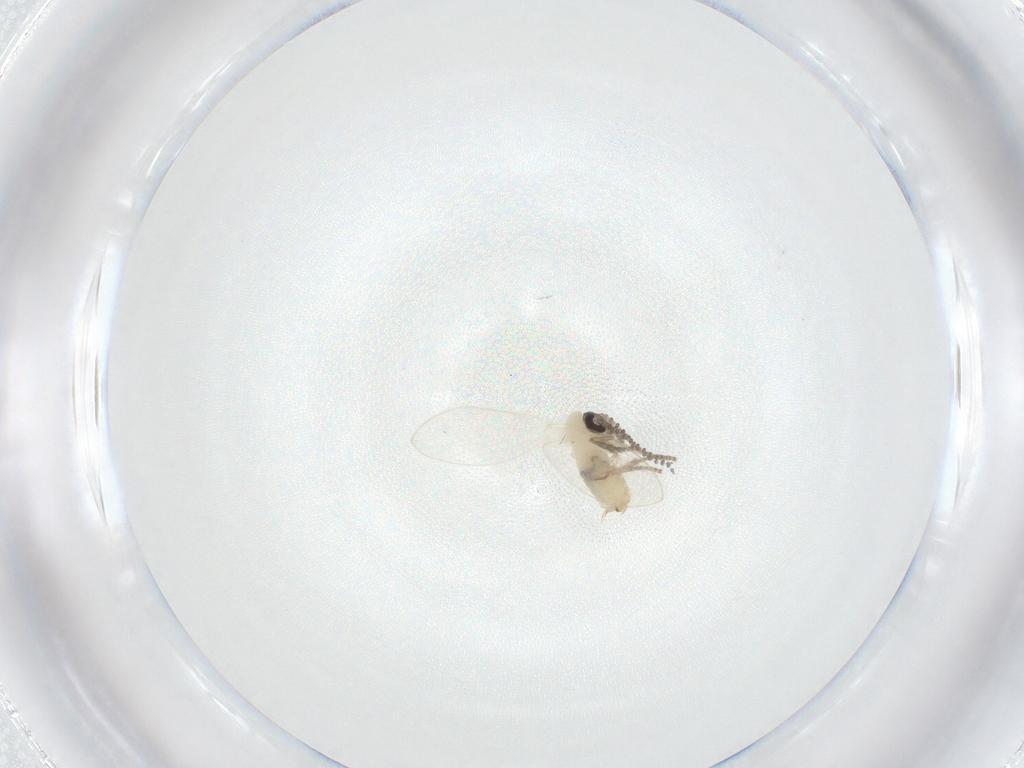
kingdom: Animalia
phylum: Arthropoda
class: Insecta
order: Diptera
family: Psychodidae
